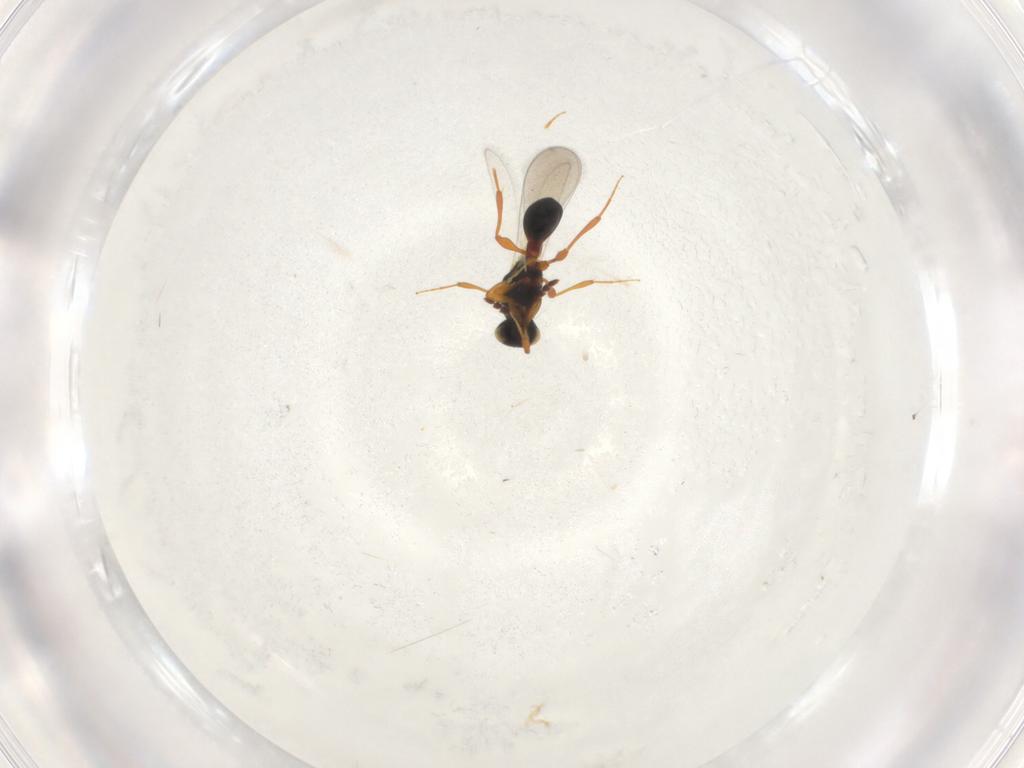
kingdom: Animalia
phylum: Arthropoda
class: Insecta
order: Hymenoptera
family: Platygastridae
